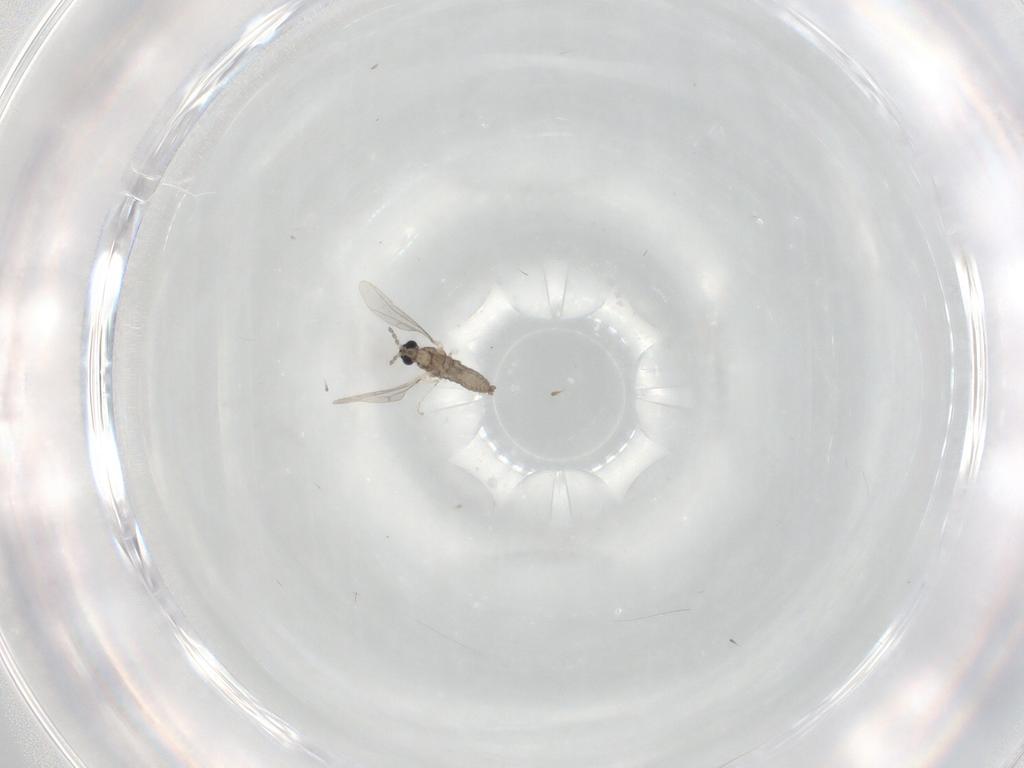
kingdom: Animalia
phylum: Arthropoda
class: Insecta
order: Diptera
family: Cecidomyiidae
